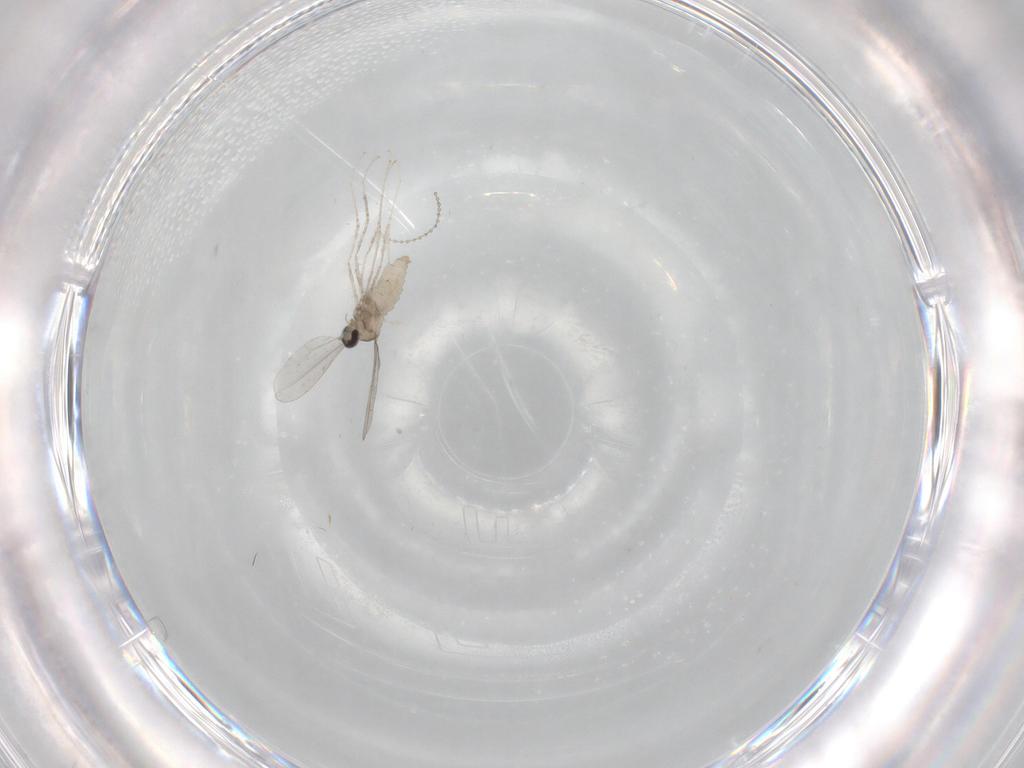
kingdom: Animalia
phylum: Arthropoda
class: Insecta
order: Diptera
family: Cecidomyiidae
